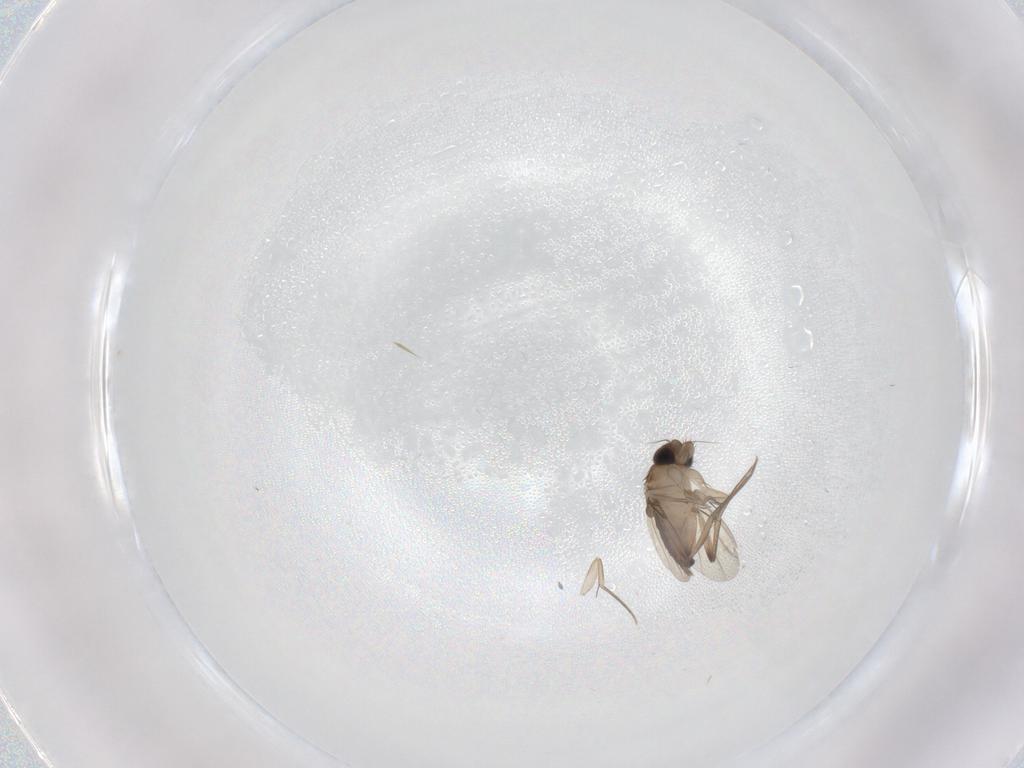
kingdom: Animalia
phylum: Arthropoda
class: Insecta
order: Diptera
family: Phoridae
